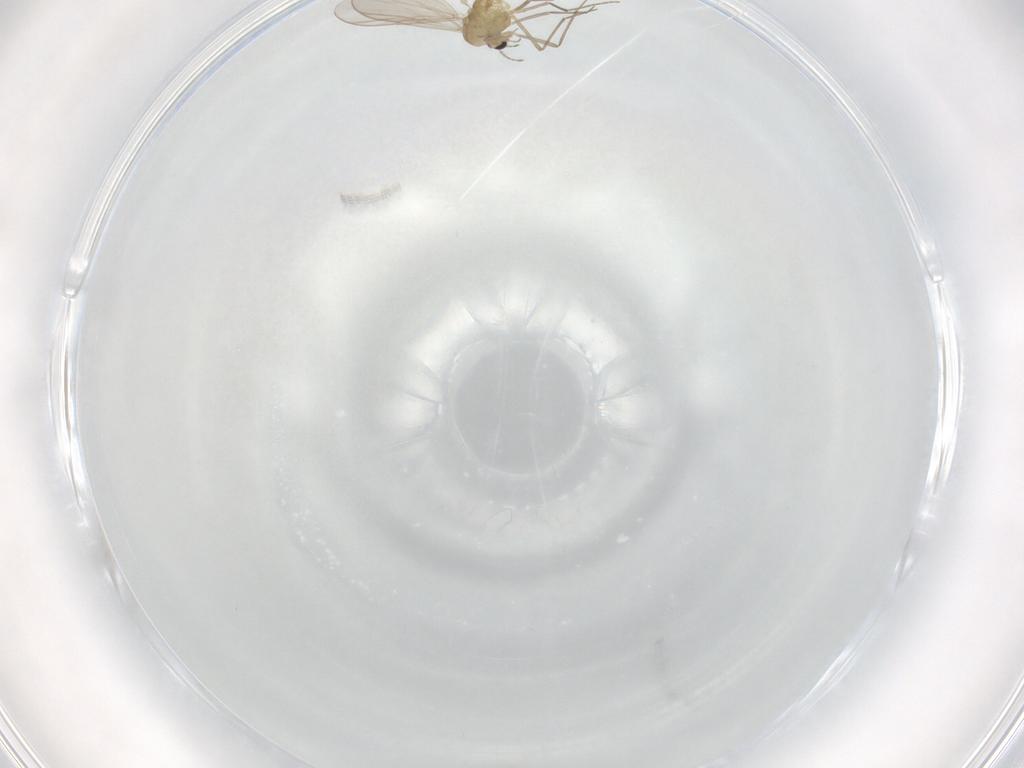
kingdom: Animalia
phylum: Arthropoda
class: Insecta
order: Diptera
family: Chironomidae
